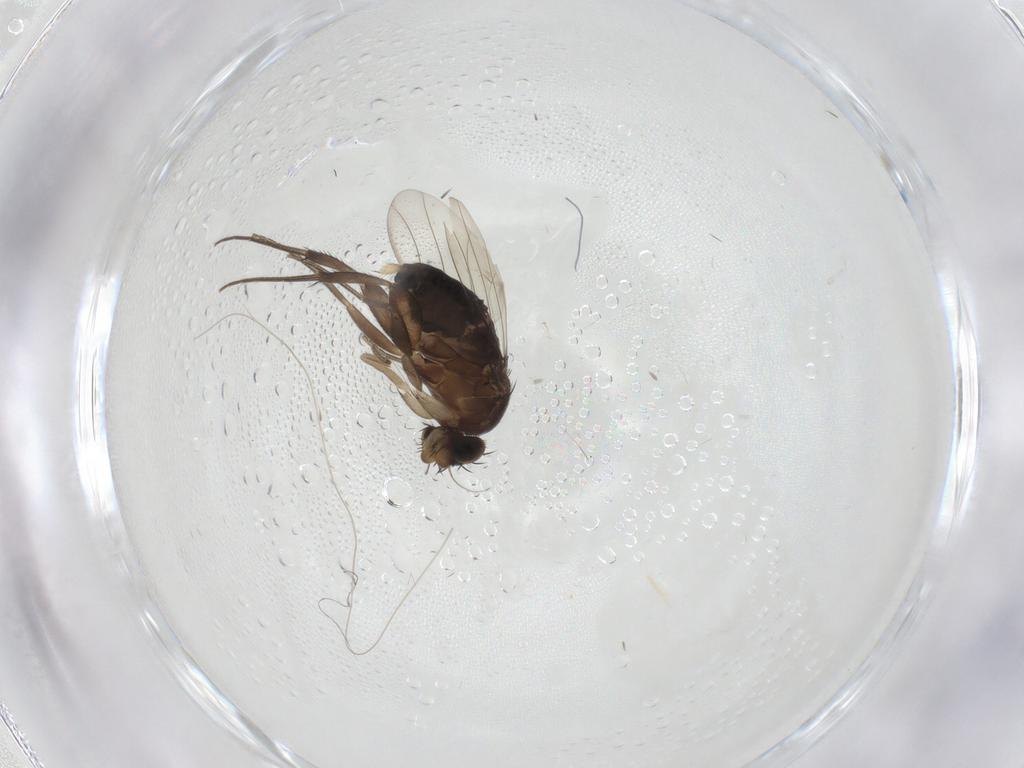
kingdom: Animalia
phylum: Arthropoda
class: Insecta
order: Diptera
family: Phoridae
